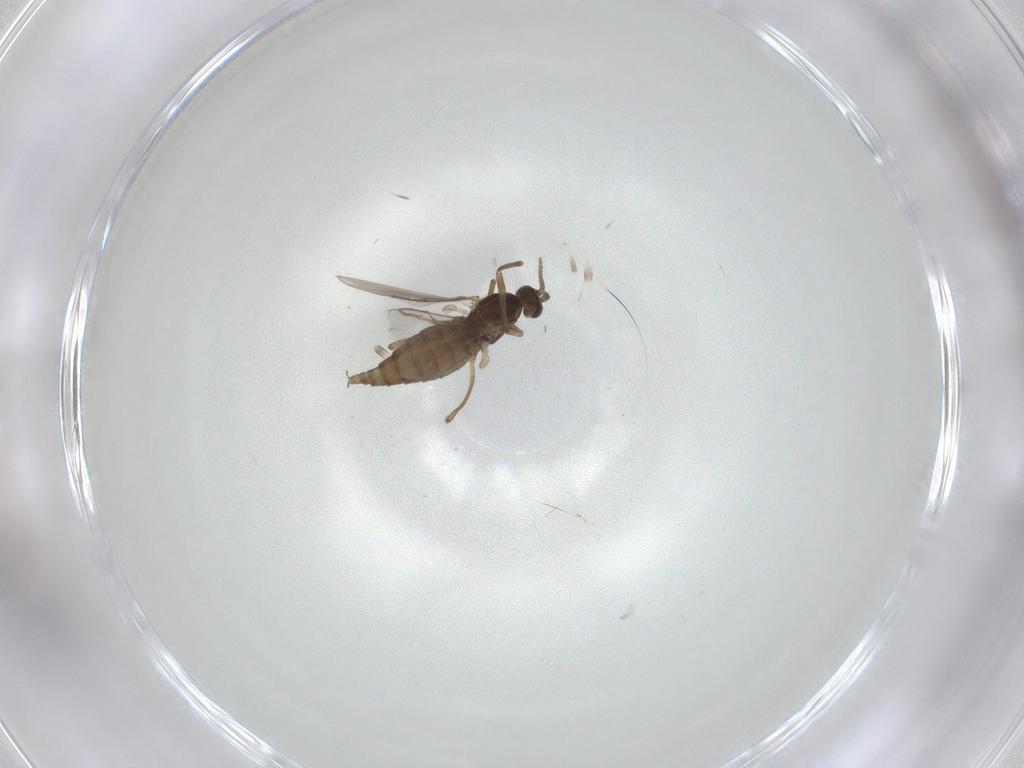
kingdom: Animalia
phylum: Arthropoda
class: Insecta
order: Diptera
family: Cecidomyiidae
